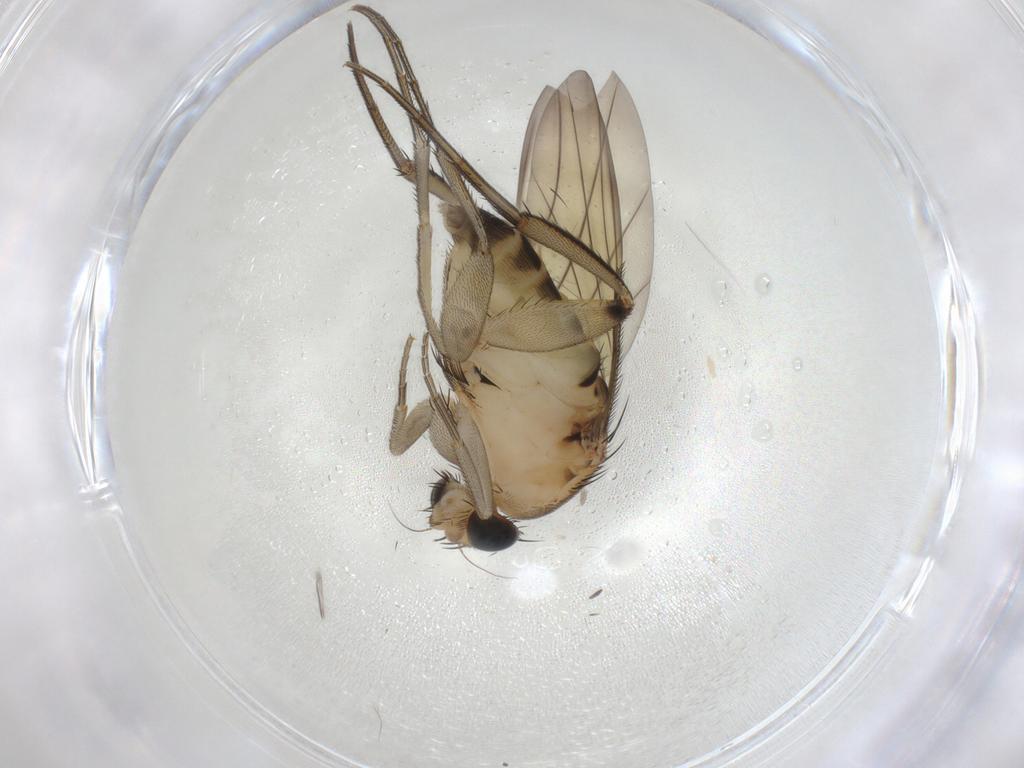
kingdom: Animalia
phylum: Arthropoda
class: Insecta
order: Diptera
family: Phoridae
